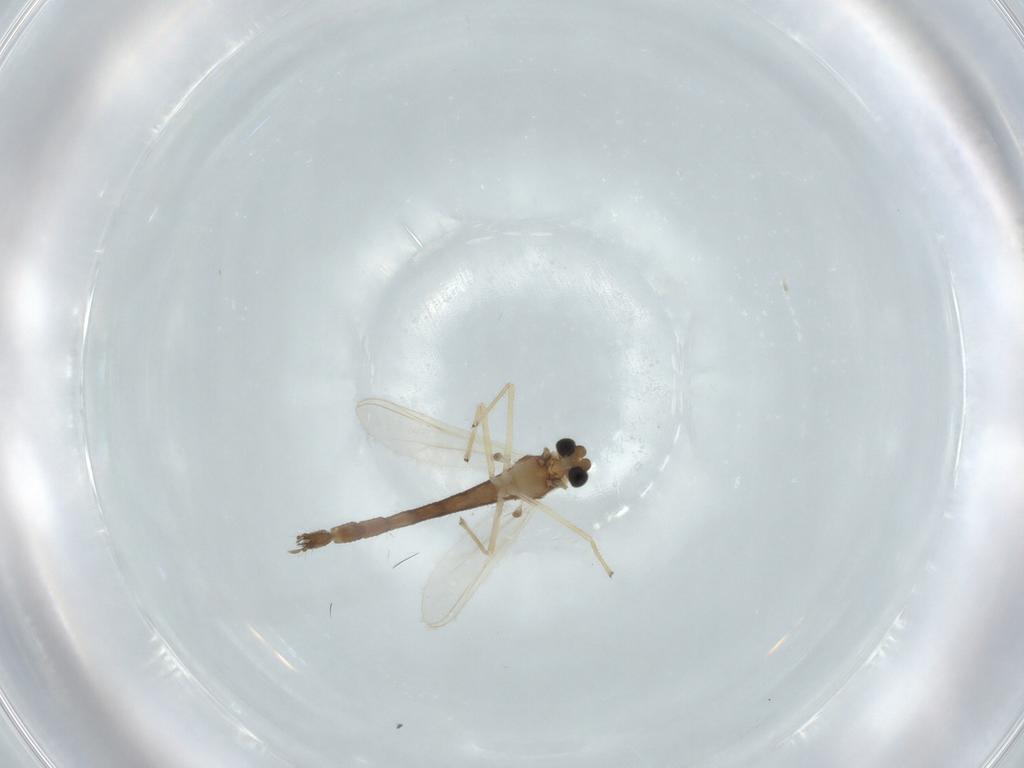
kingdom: Animalia
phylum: Arthropoda
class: Insecta
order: Diptera
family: Chironomidae
